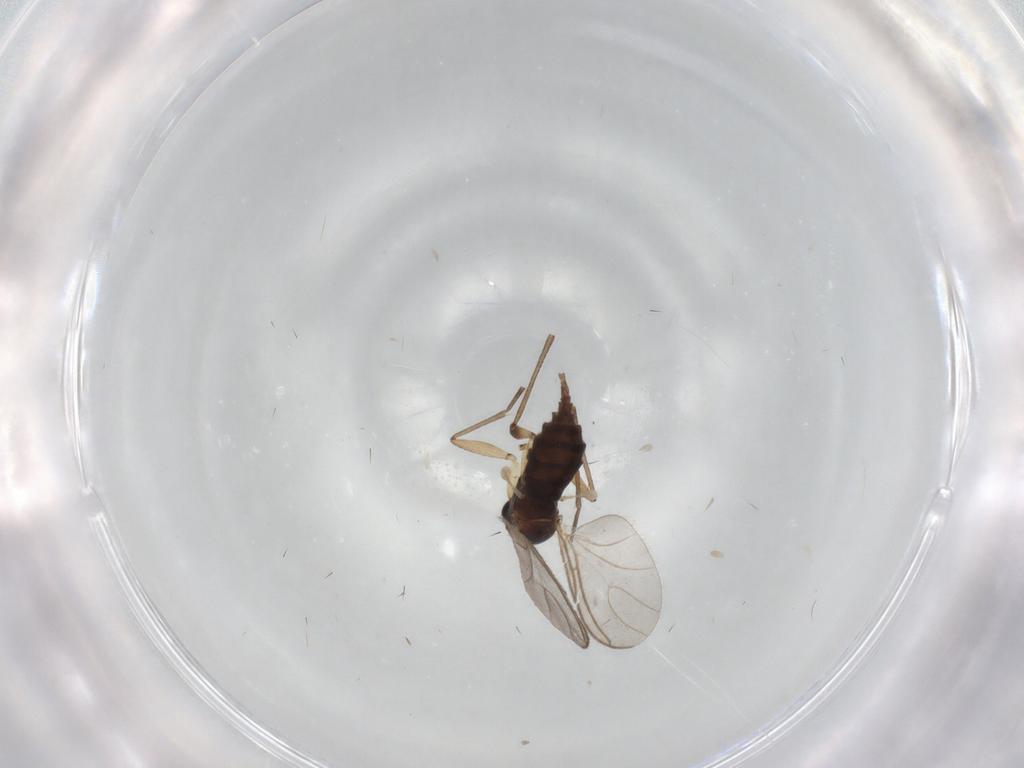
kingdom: Animalia
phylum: Arthropoda
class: Insecta
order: Diptera
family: Sciaridae
